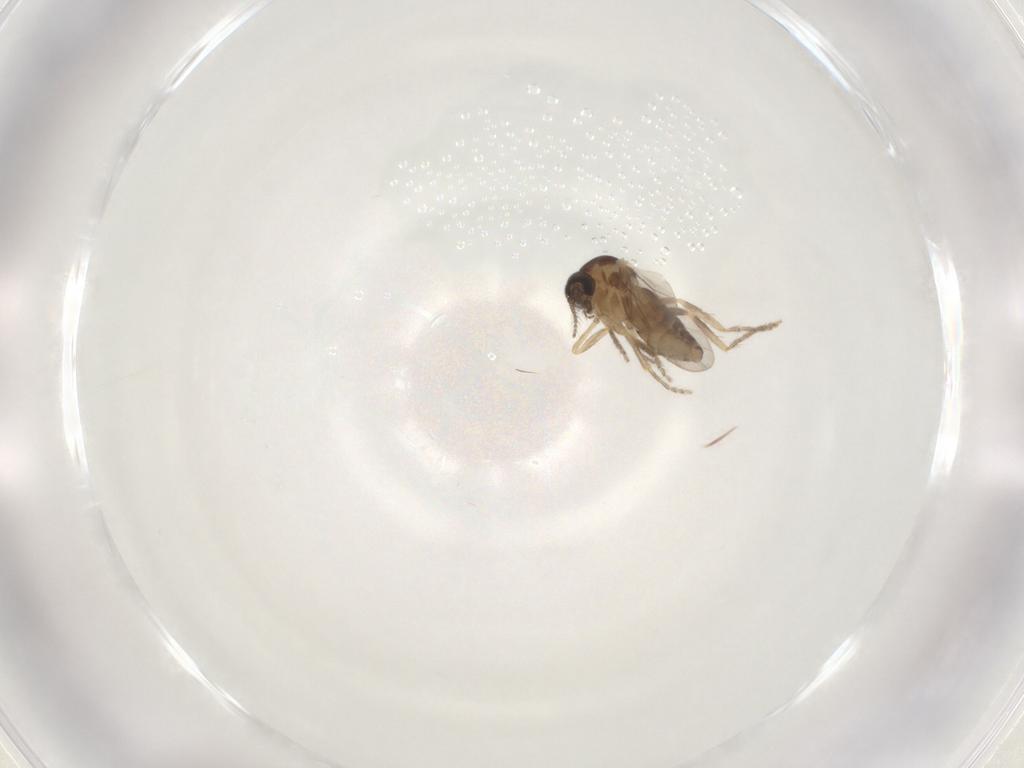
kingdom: Animalia
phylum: Arthropoda
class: Insecta
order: Diptera
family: Ceratopogonidae
